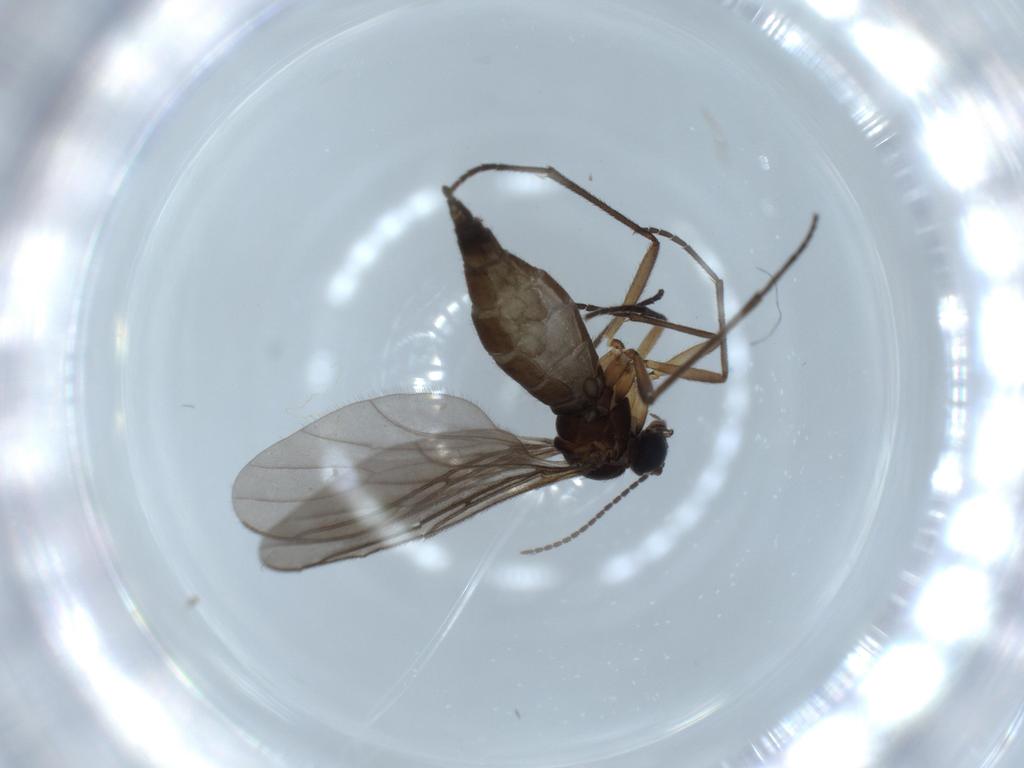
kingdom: Animalia
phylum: Arthropoda
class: Insecta
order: Diptera
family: Sciaridae
